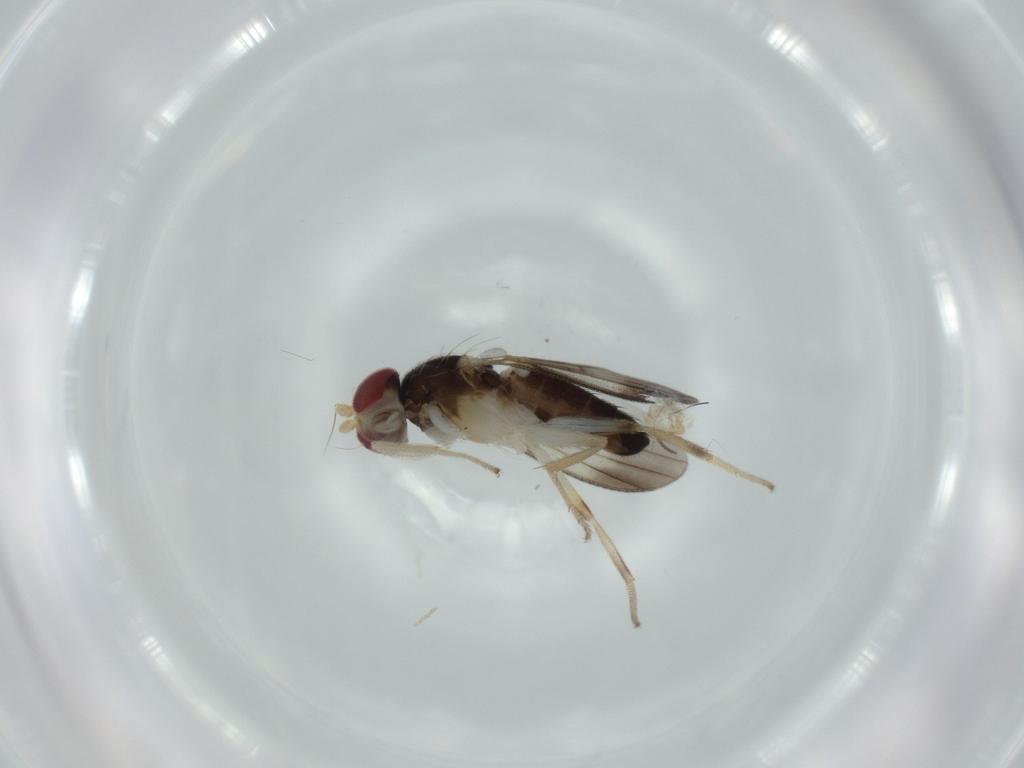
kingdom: Animalia
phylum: Arthropoda
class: Insecta
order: Diptera
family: Clusiidae
